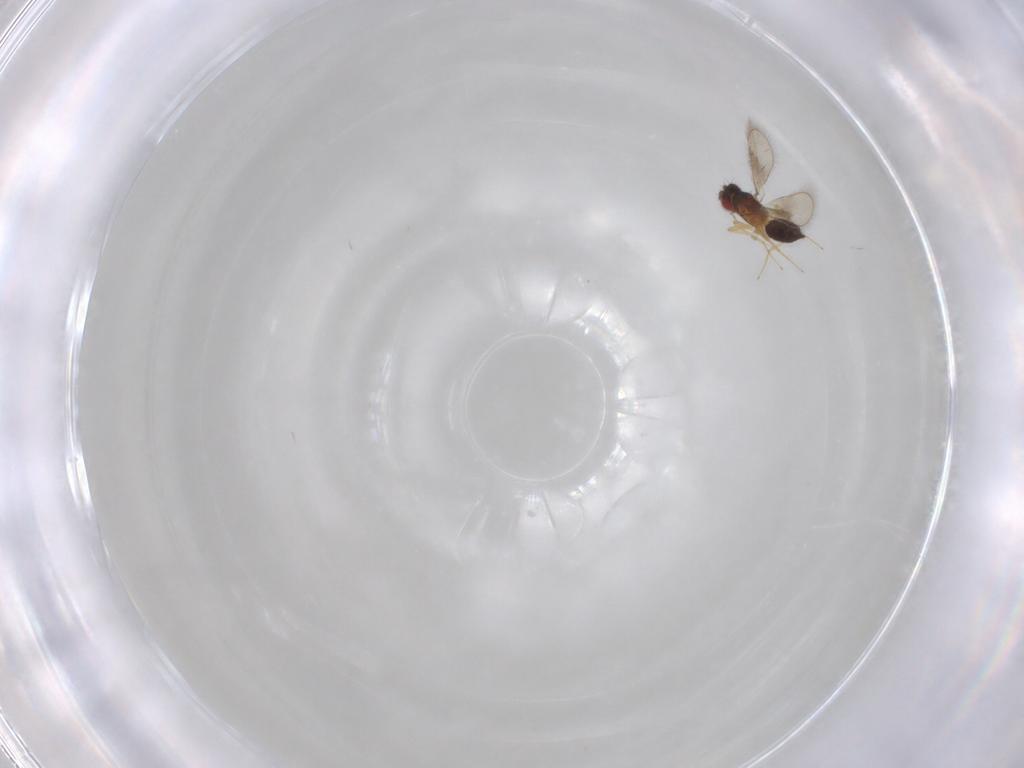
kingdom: Animalia
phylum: Arthropoda
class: Insecta
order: Hymenoptera
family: Eulophidae
